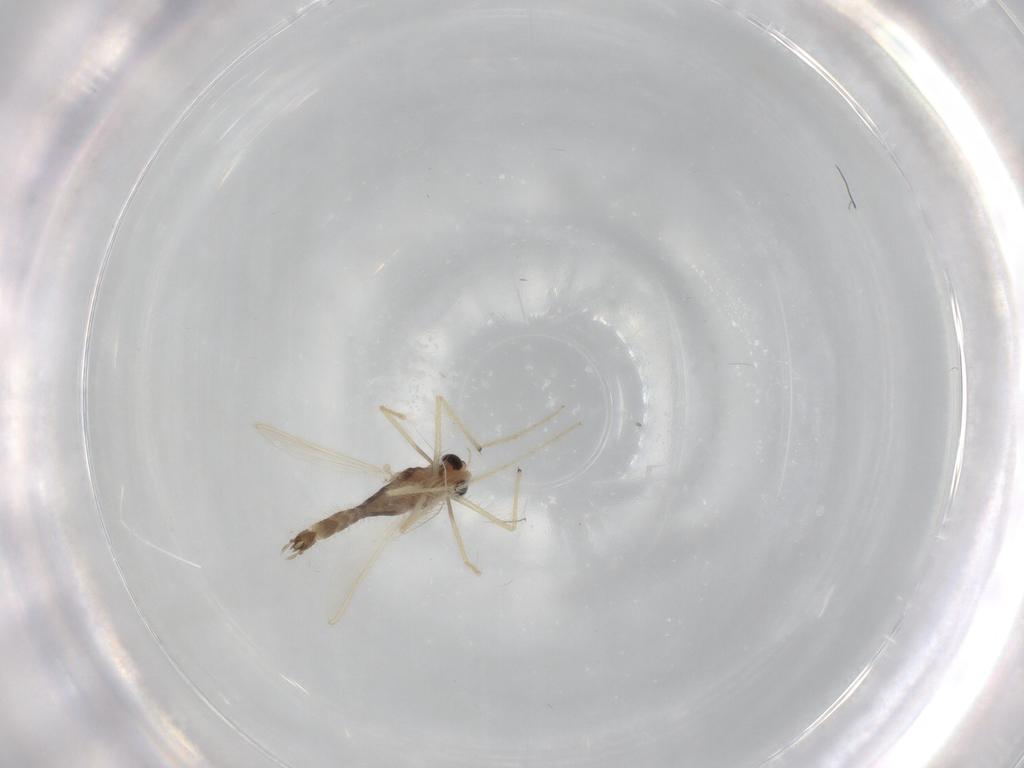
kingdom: Animalia
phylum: Arthropoda
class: Insecta
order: Diptera
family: Chironomidae
